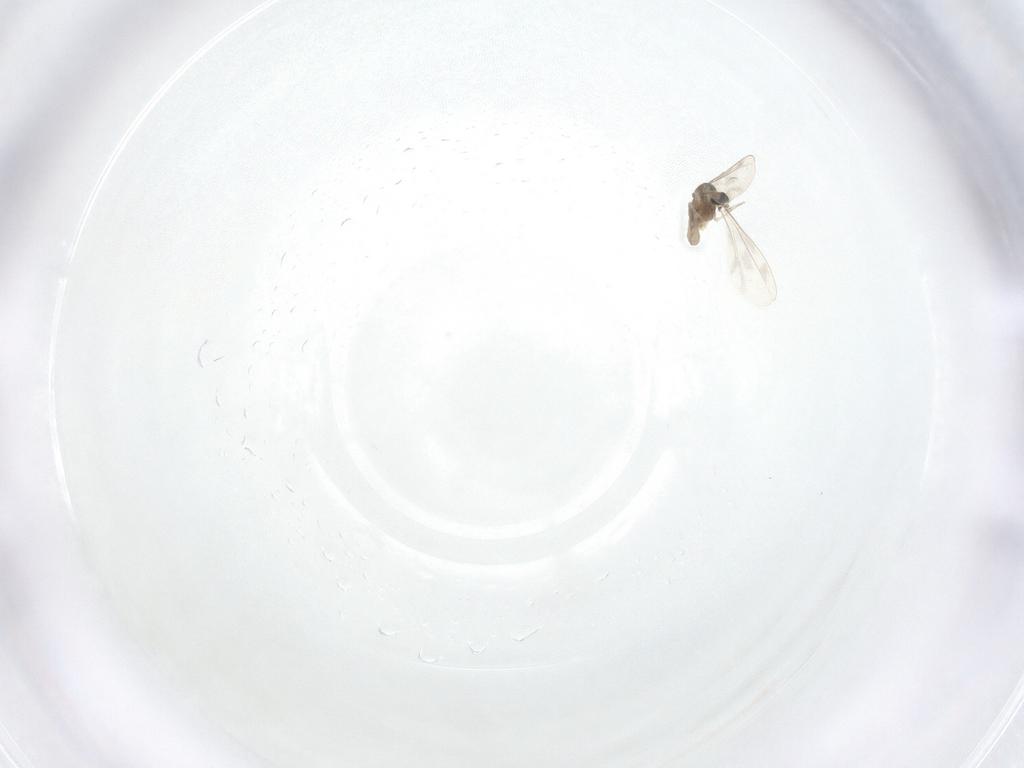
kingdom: Animalia
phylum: Arthropoda
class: Insecta
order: Diptera
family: Cecidomyiidae
